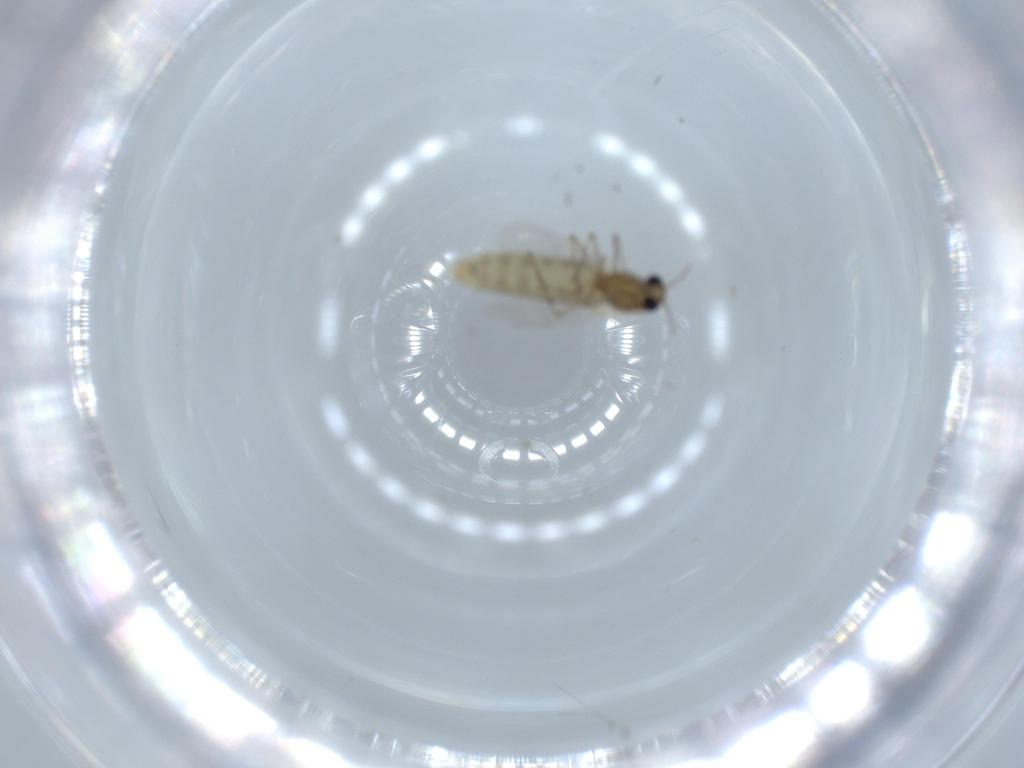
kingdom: Animalia
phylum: Arthropoda
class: Insecta
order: Diptera
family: Chironomidae
